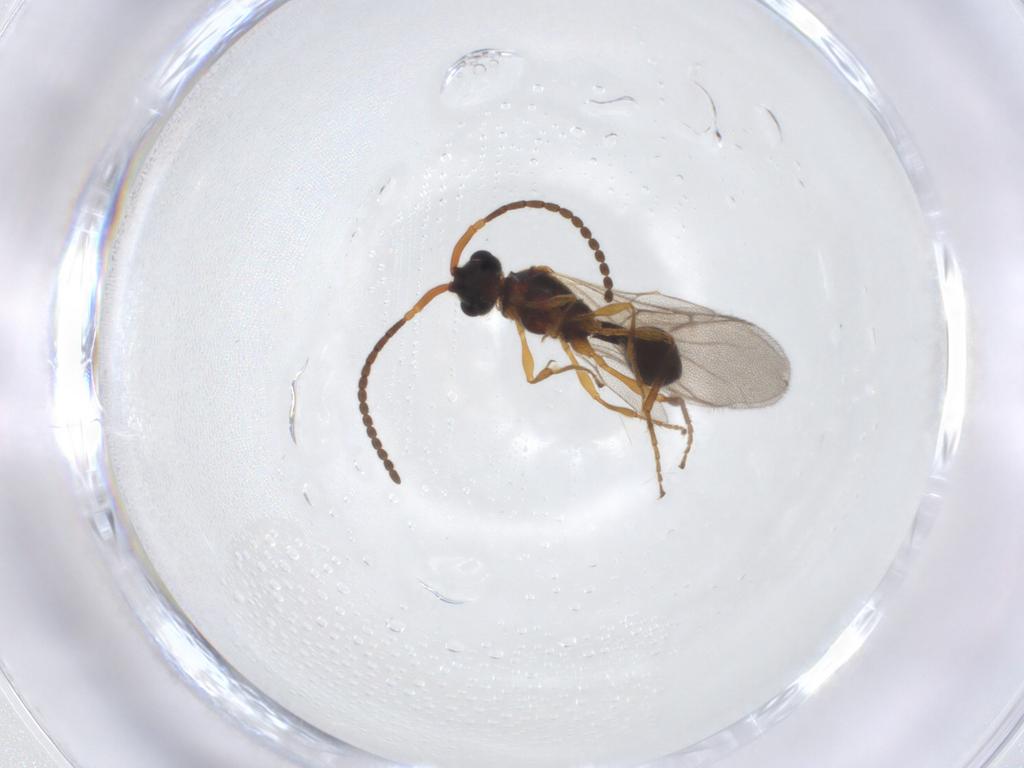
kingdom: Animalia
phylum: Arthropoda
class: Insecta
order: Hymenoptera
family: Diapriidae
